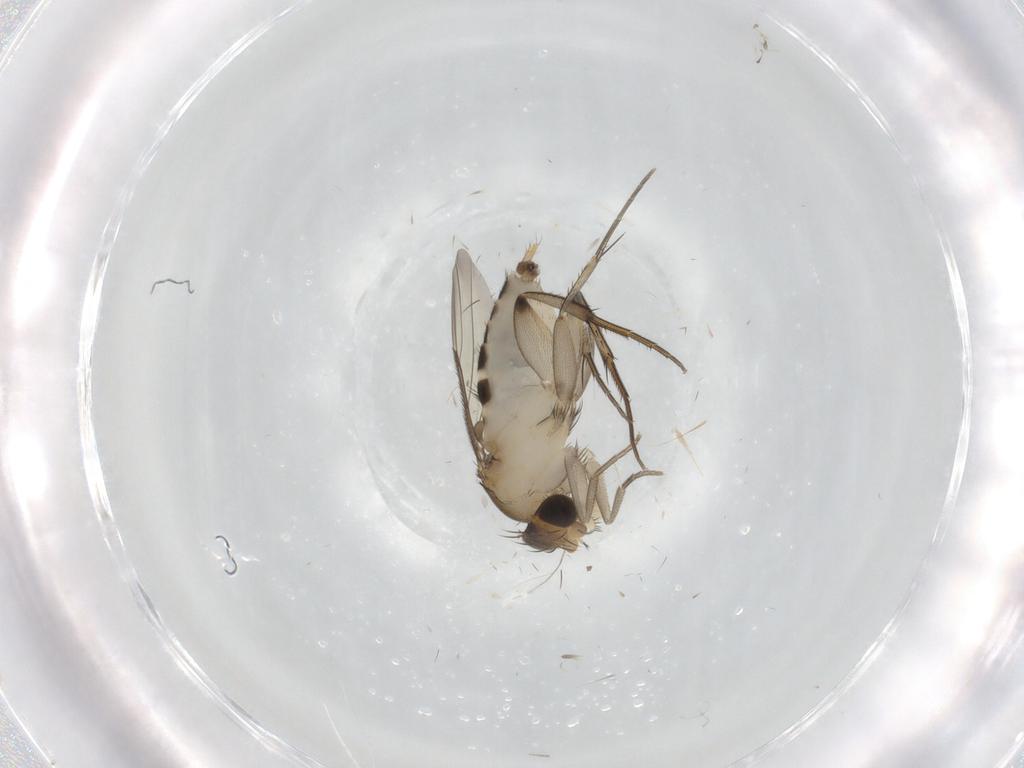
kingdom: Animalia
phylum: Arthropoda
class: Insecta
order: Diptera
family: Phoridae
